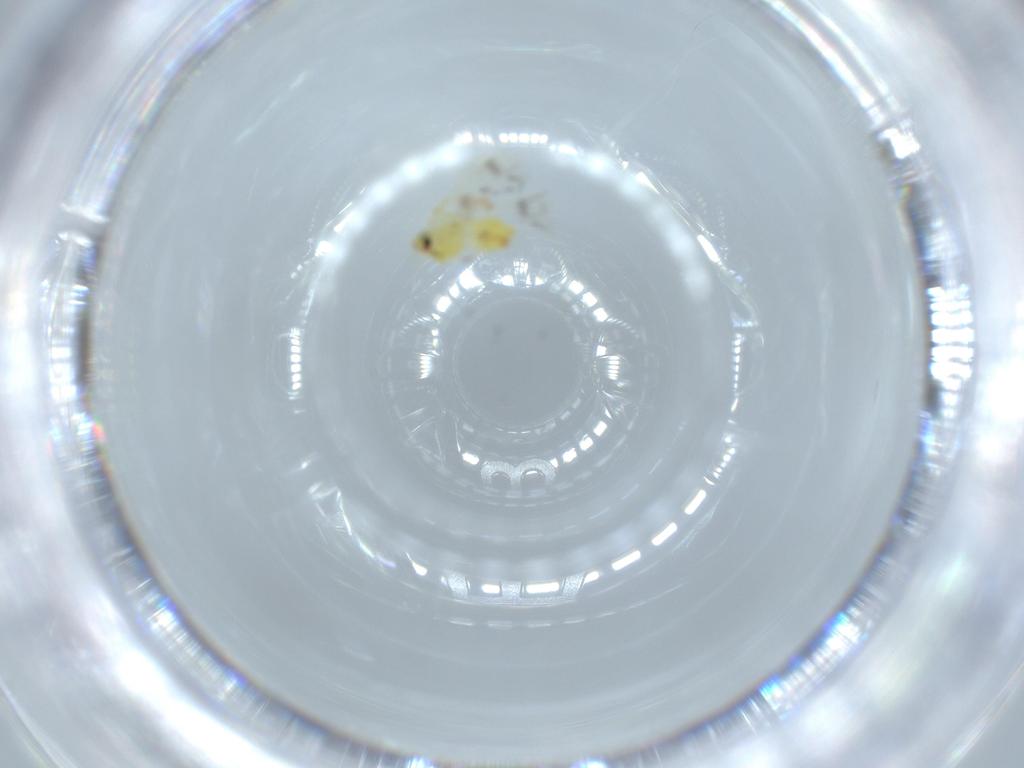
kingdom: Animalia
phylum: Arthropoda
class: Insecta
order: Hemiptera
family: Aleyrodidae
